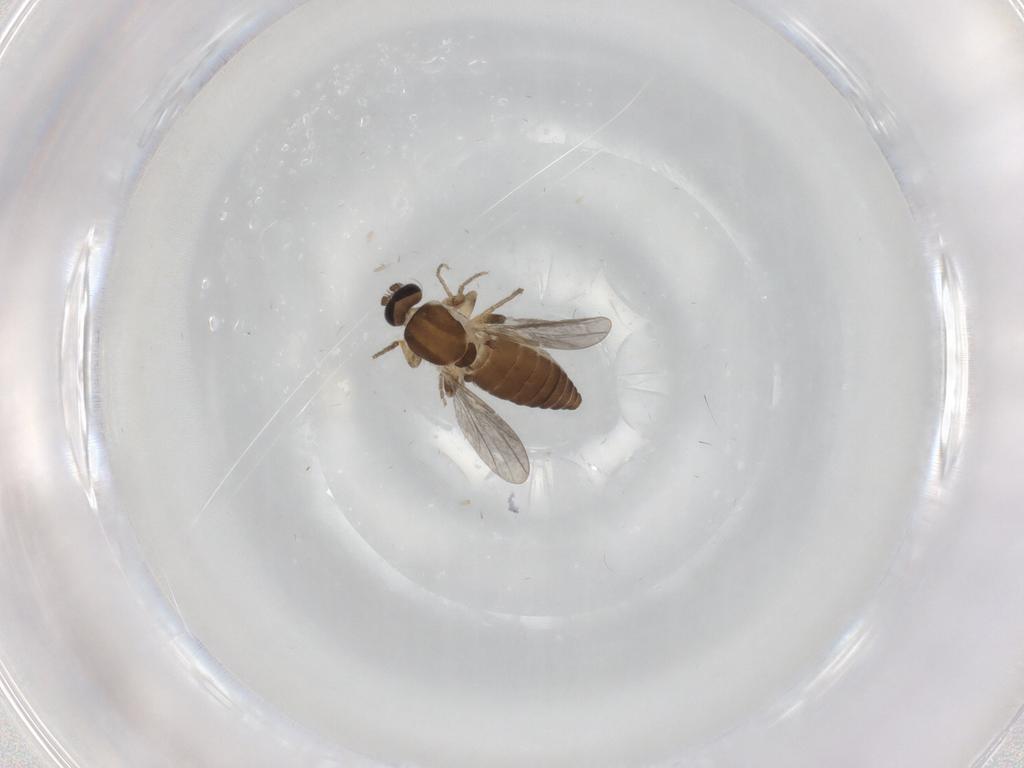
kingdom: Animalia
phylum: Arthropoda
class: Insecta
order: Diptera
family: Ceratopogonidae
